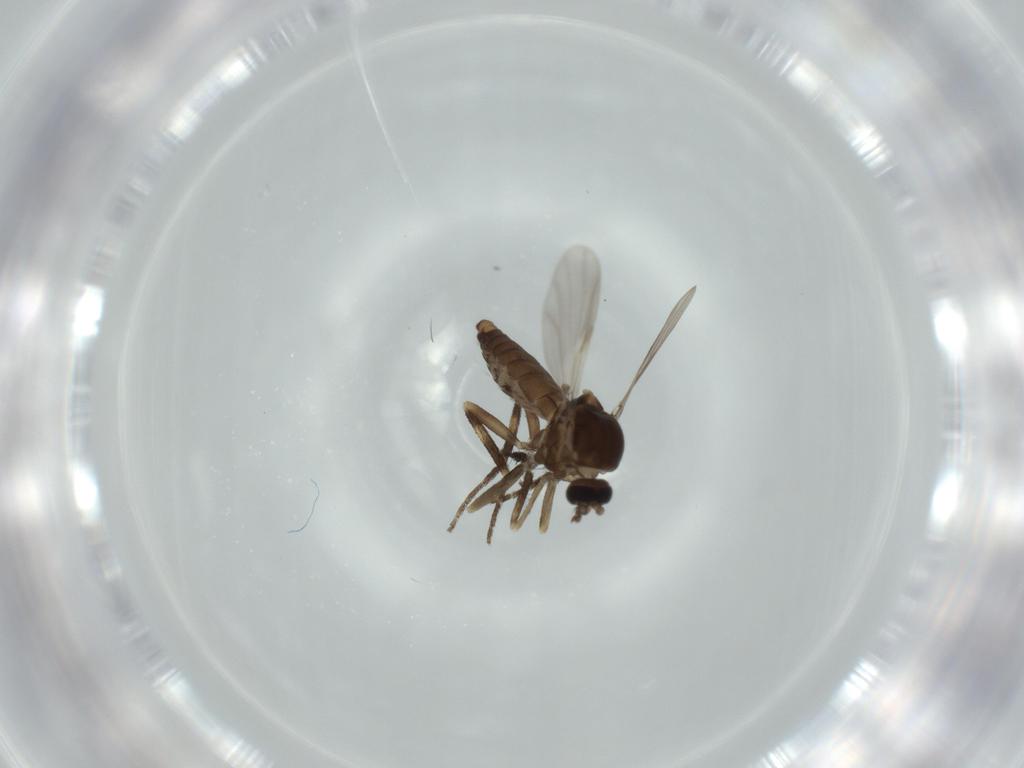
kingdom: Animalia
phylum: Arthropoda
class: Insecta
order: Diptera
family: Ceratopogonidae
